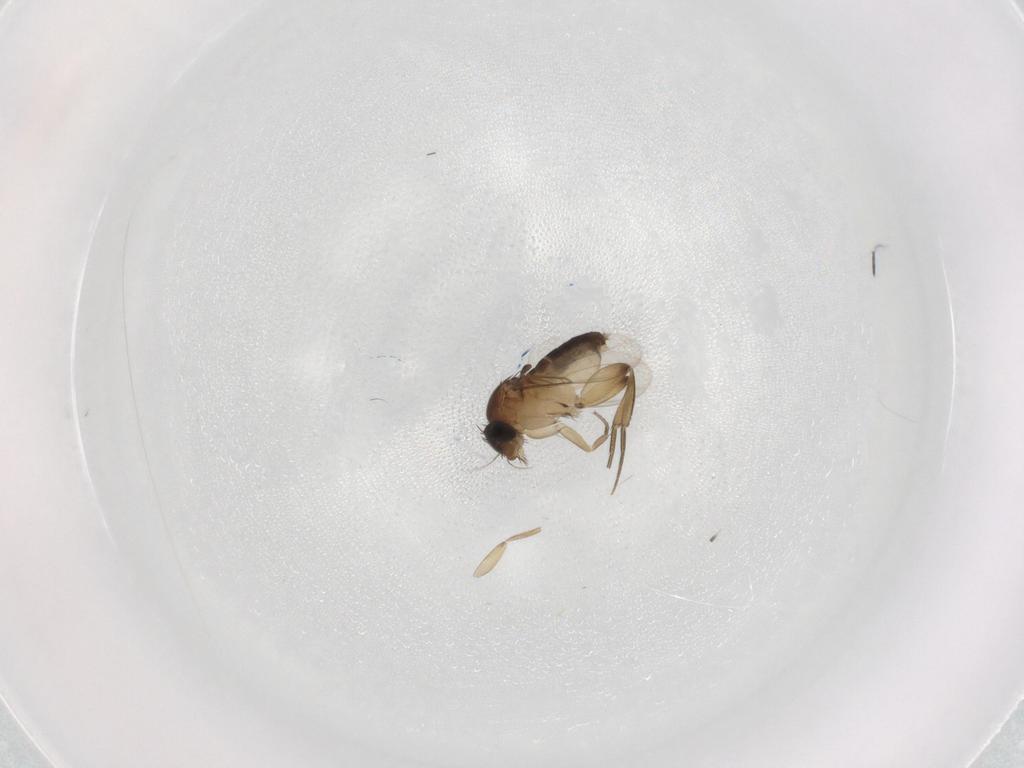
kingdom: Animalia
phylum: Arthropoda
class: Insecta
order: Diptera
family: Phoridae
